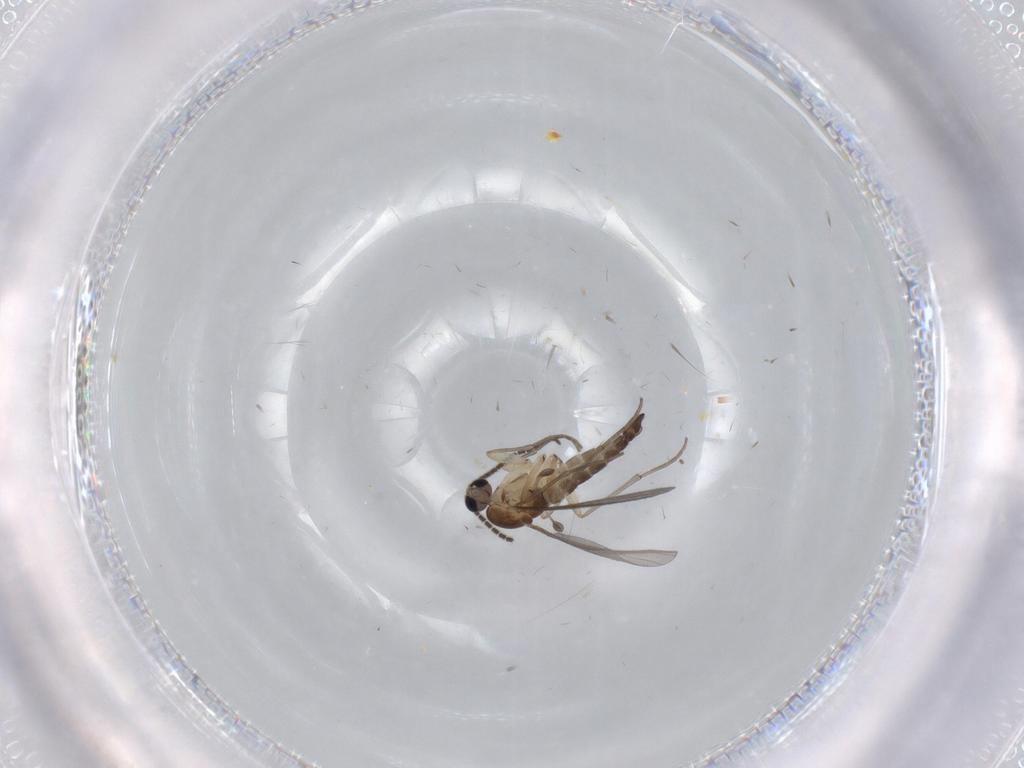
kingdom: Animalia
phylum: Arthropoda
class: Insecta
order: Diptera
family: Sciaridae
